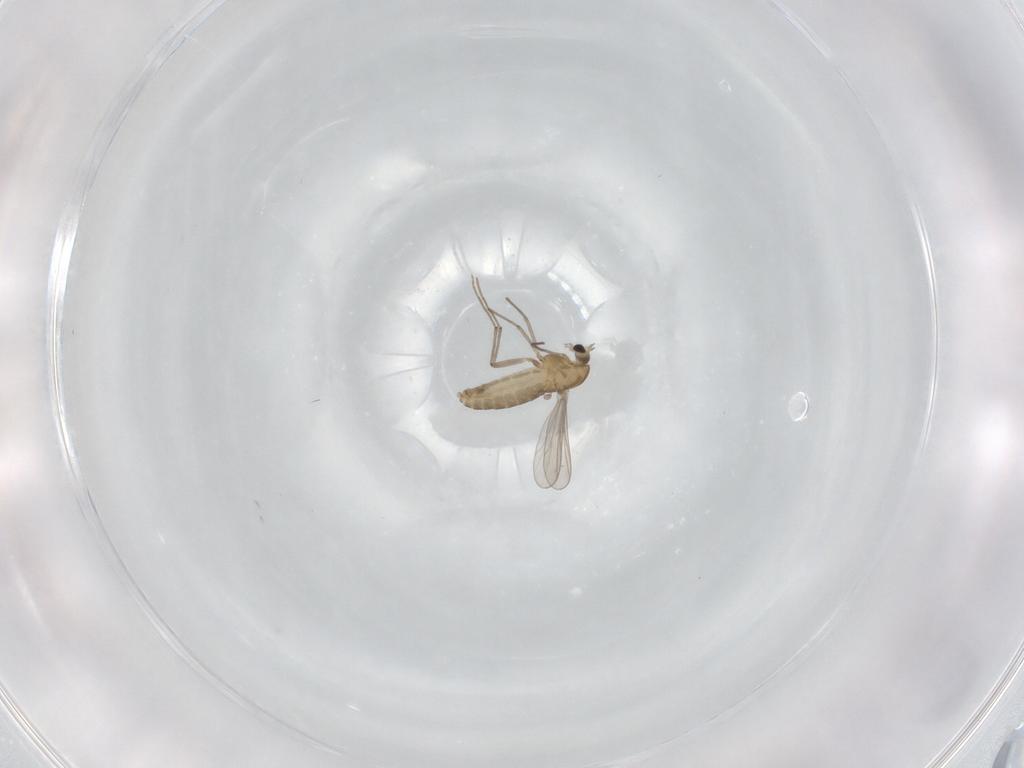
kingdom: Animalia
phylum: Arthropoda
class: Insecta
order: Diptera
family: Chironomidae
